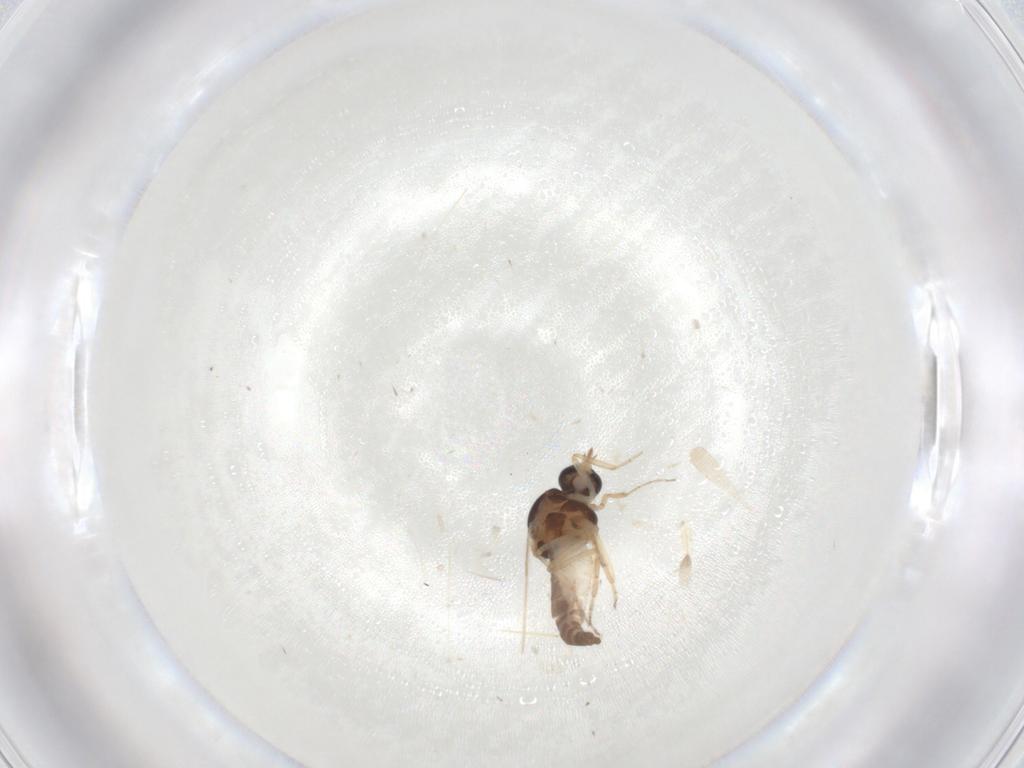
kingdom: Animalia
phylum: Arthropoda
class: Insecta
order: Diptera
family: Ceratopogonidae
